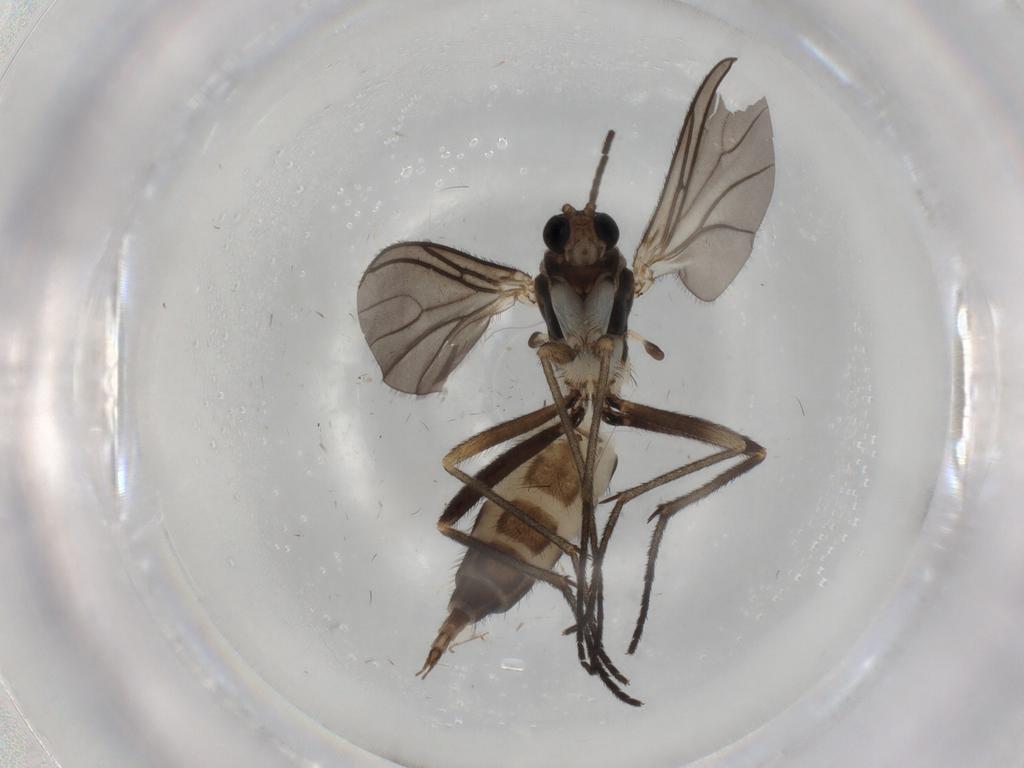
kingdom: Animalia
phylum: Arthropoda
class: Insecta
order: Diptera
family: Sciaridae
